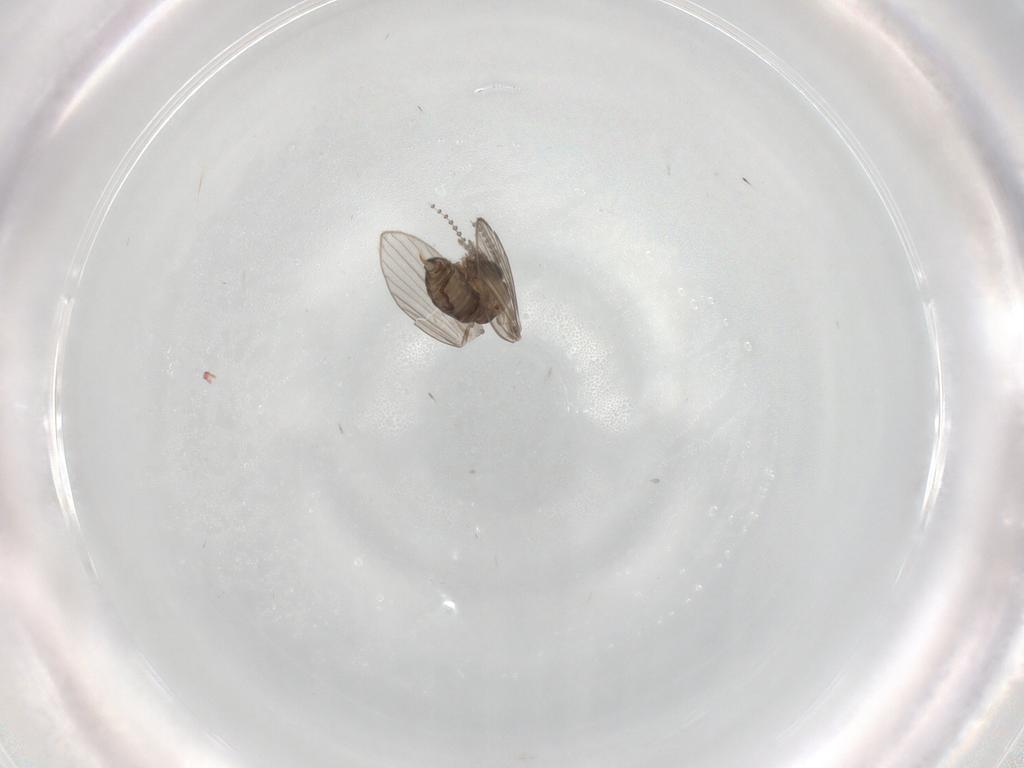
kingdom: Animalia
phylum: Arthropoda
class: Insecta
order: Diptera
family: Psychodidae
